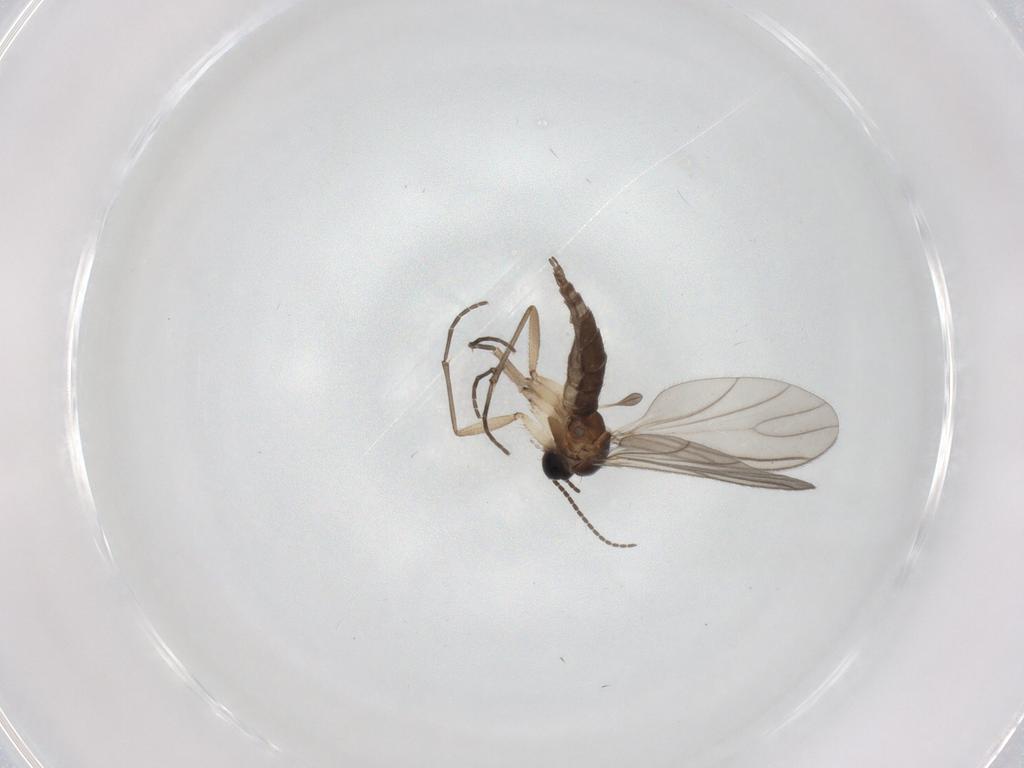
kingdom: Animalia
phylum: Arthropoda
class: Insecta
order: Diptera
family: Sciaridae
